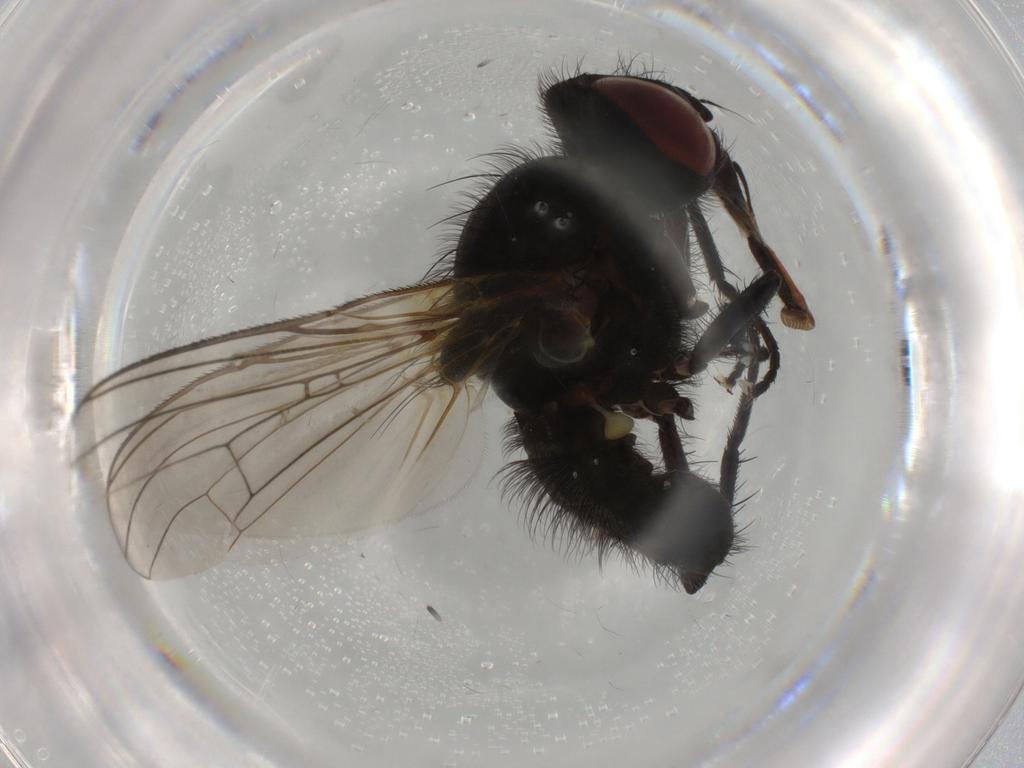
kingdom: Animalia
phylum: Arthropoda
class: Insecta
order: Diptera
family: Anthomyiidae
